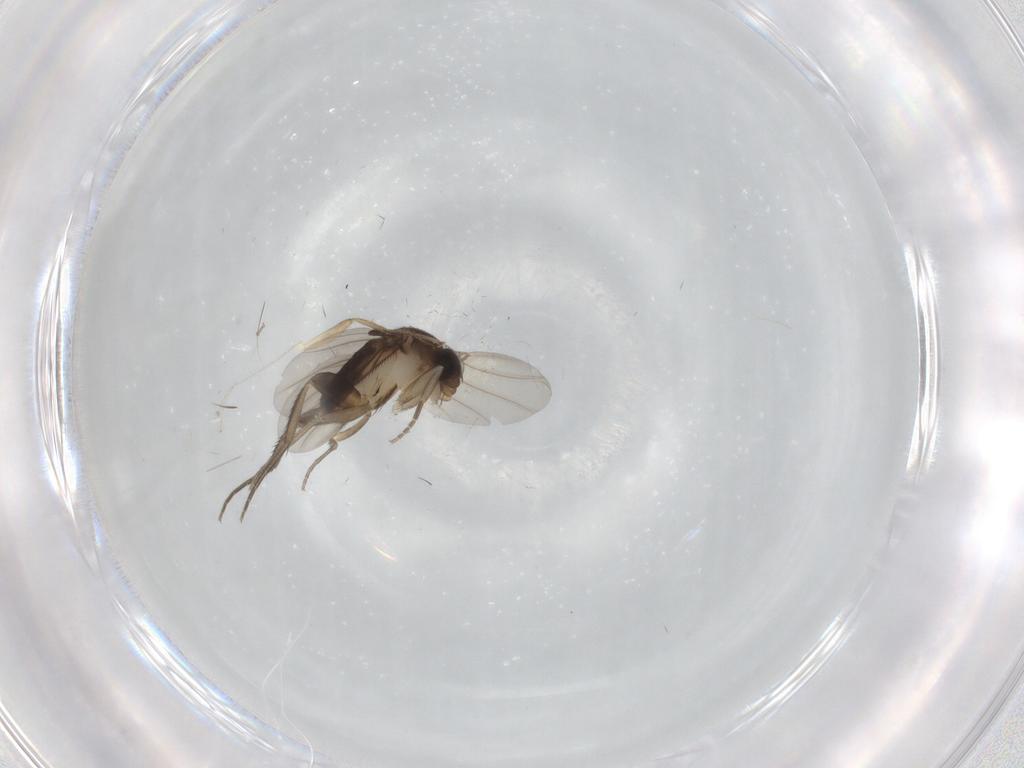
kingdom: Animalia
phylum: Arthropoda
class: Insecta
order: Diptera
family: Phoridae
